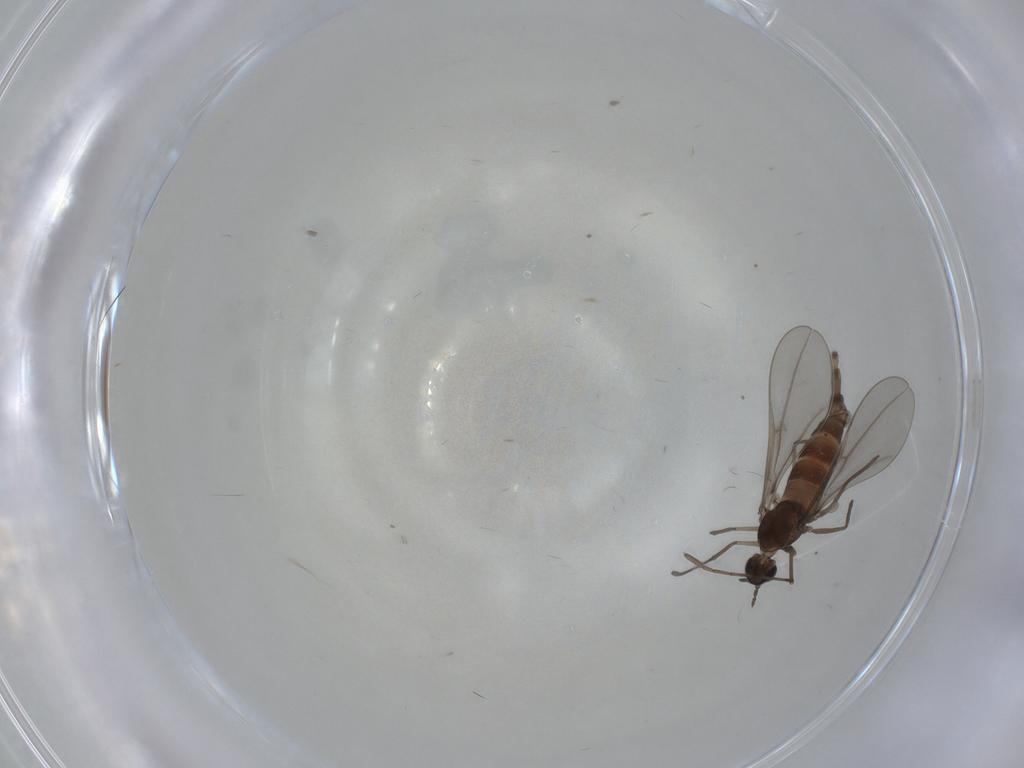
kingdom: Animalia
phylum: Arthropoda
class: Insecta
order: Diptera
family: Cecidomyiidae
